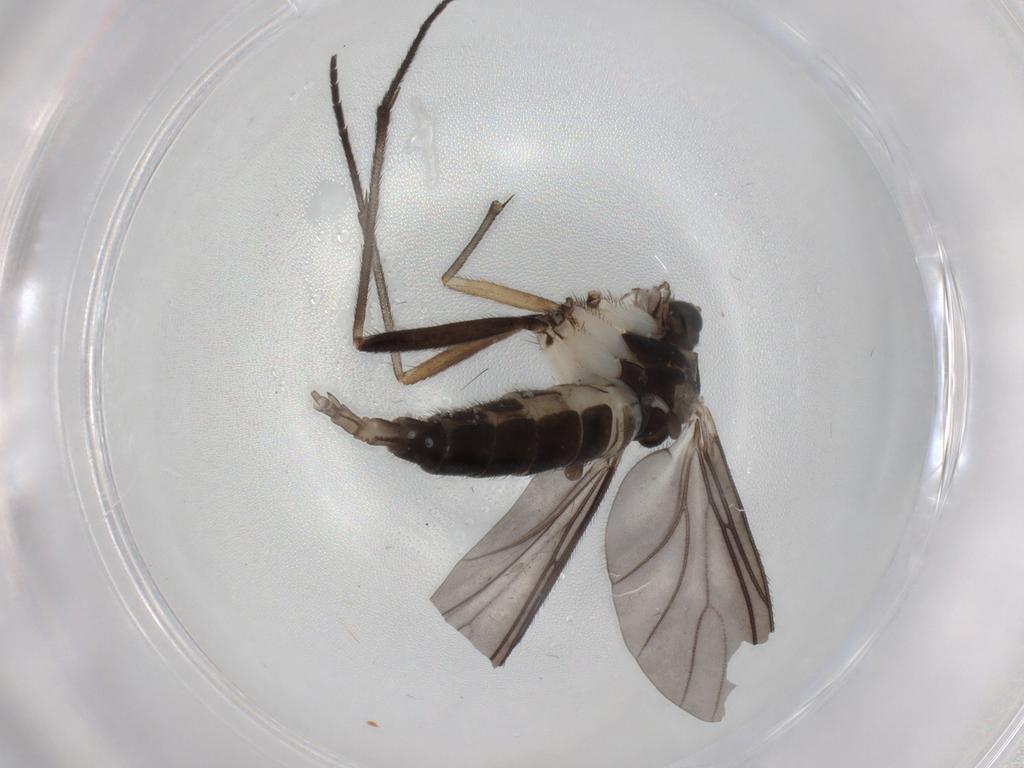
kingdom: Animalia
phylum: Arthropoda
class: Insecta
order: Diptera
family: Sciaridae
